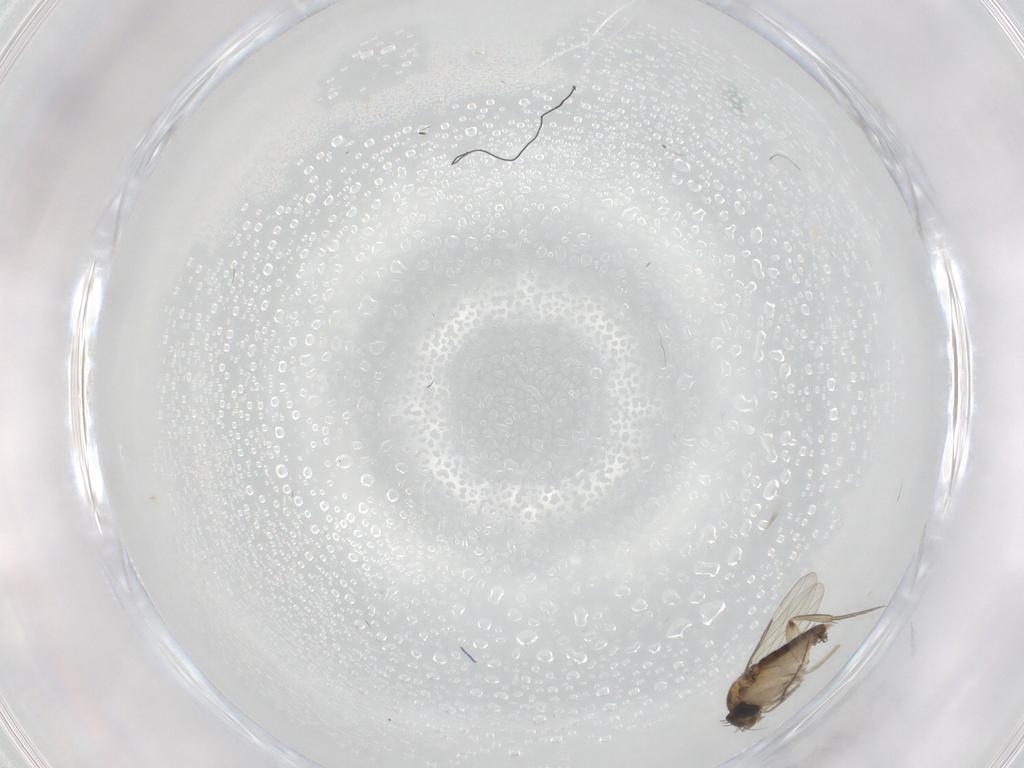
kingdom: Animalia
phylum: Arthropoda
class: Insecta
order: Diptera
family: Phoridae
